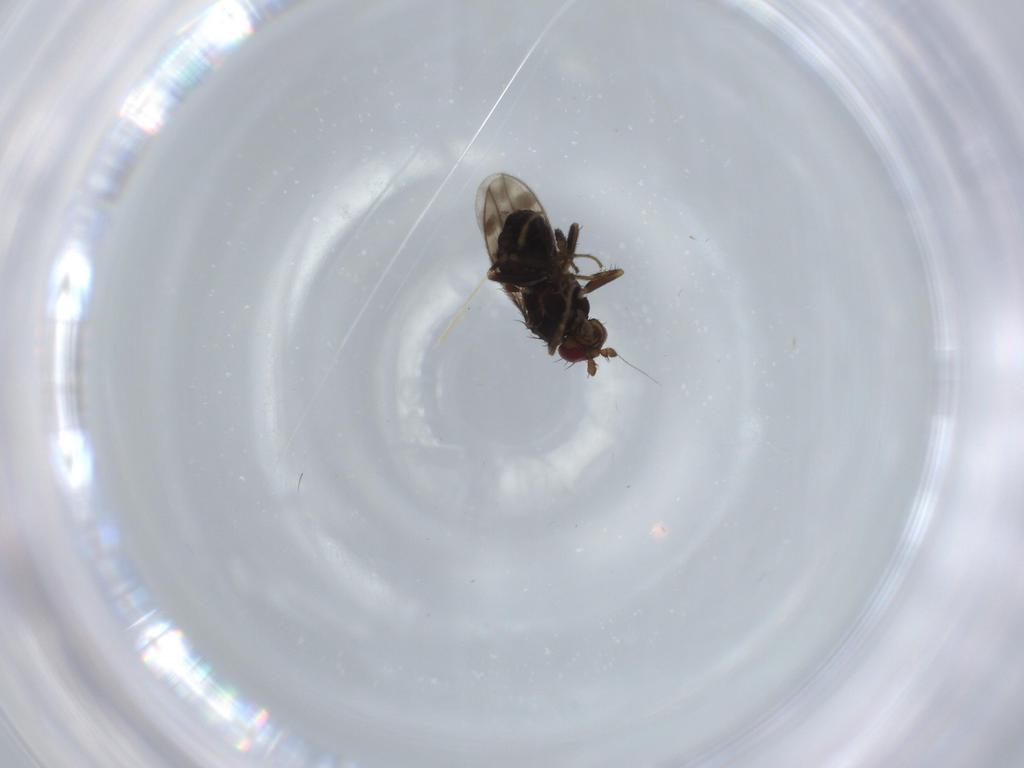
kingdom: Animalia
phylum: Arthropoda
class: Insecta
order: Diptera
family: Sphaeroceridae
